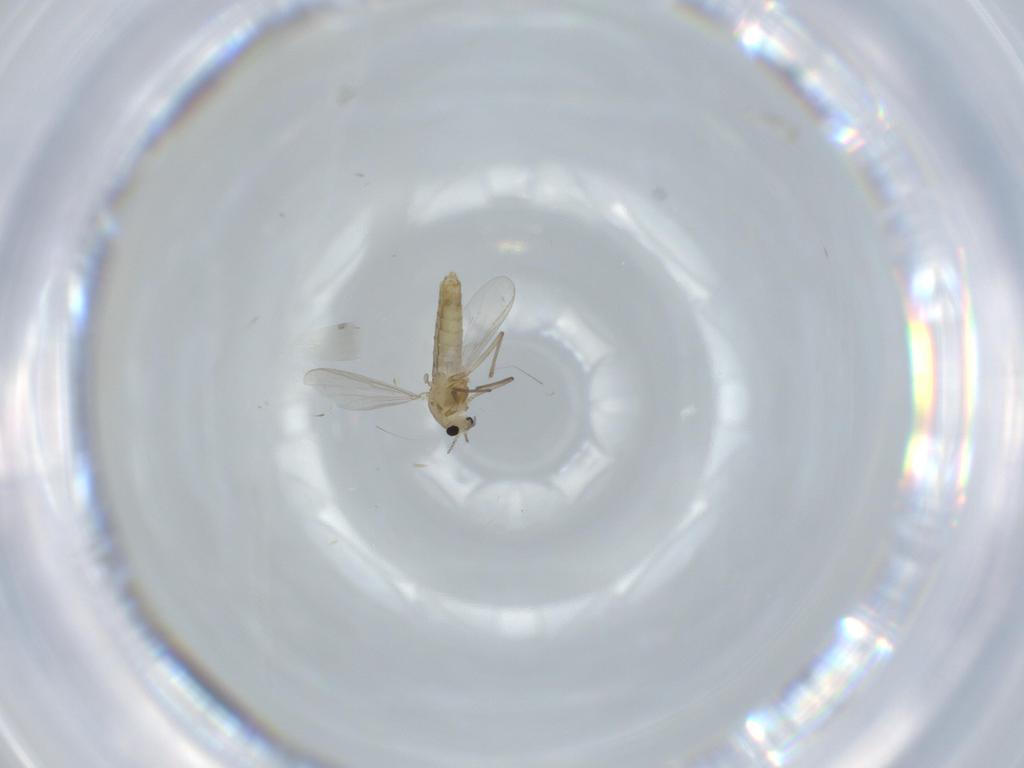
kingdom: Animalia
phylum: Arthropoda
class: Insecta
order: Diptera
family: Chironomidae
